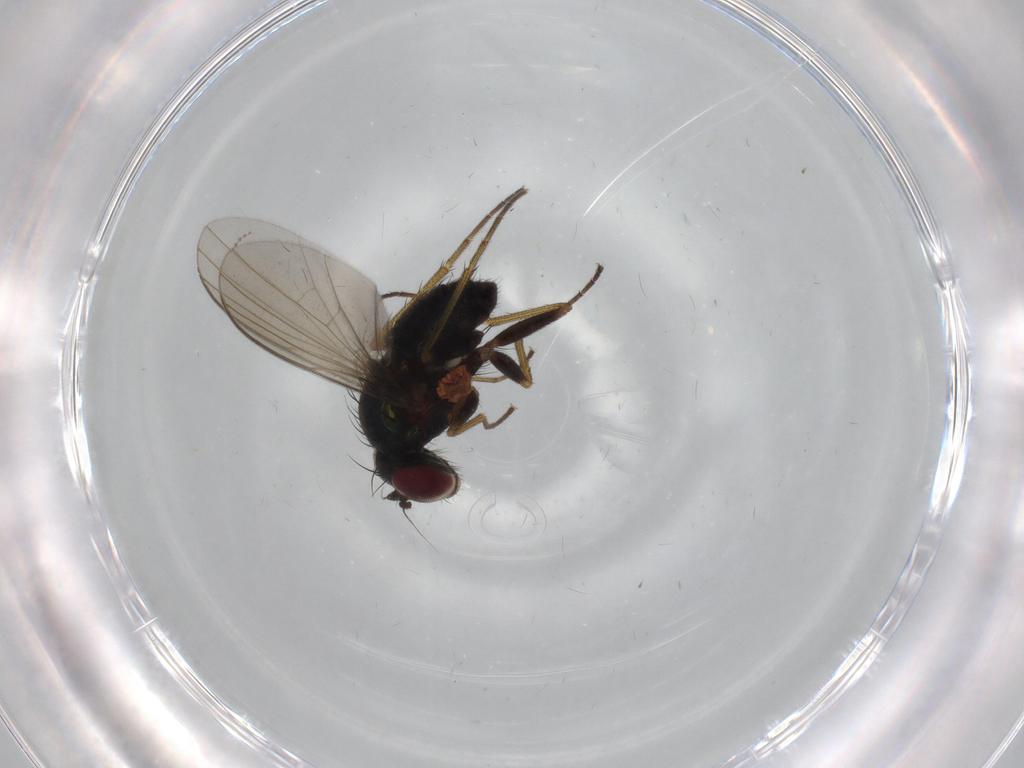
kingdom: Animalia
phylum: Arthropoda
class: Insecta
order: Diptera
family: Dolichopodidae
